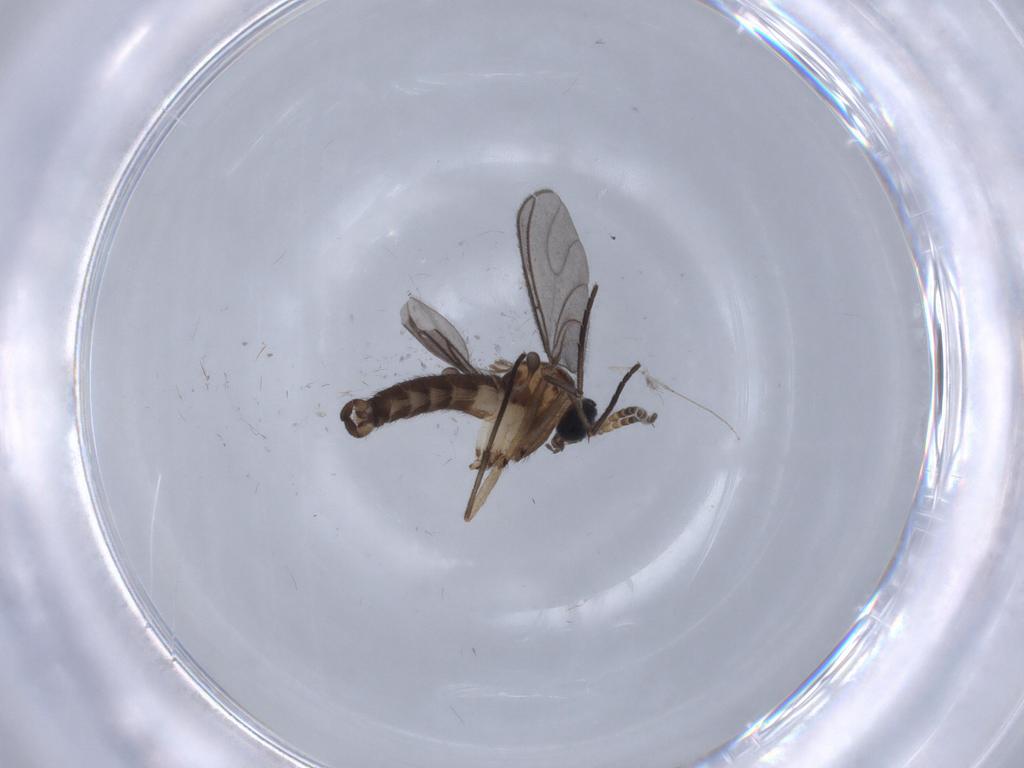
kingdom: Animalia
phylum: Arthropoda
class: Insecta
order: Diptera
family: Sciaridae
